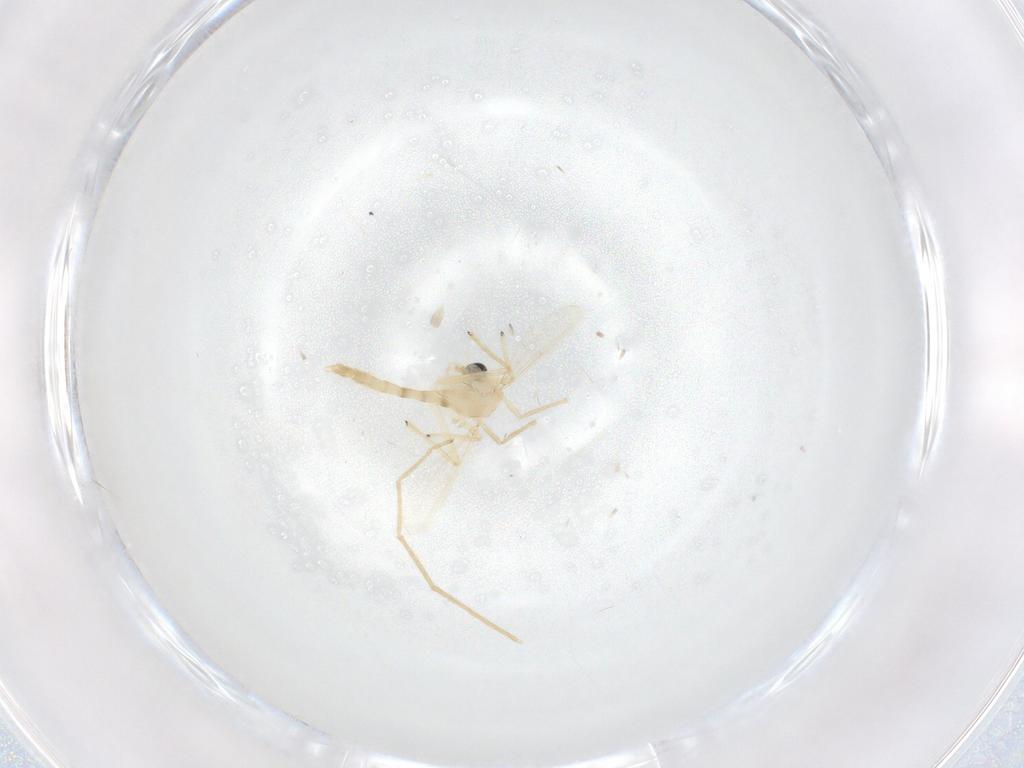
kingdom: Animalia
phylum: Arthropoda
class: Insecta
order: Diptera
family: Chironomidae
